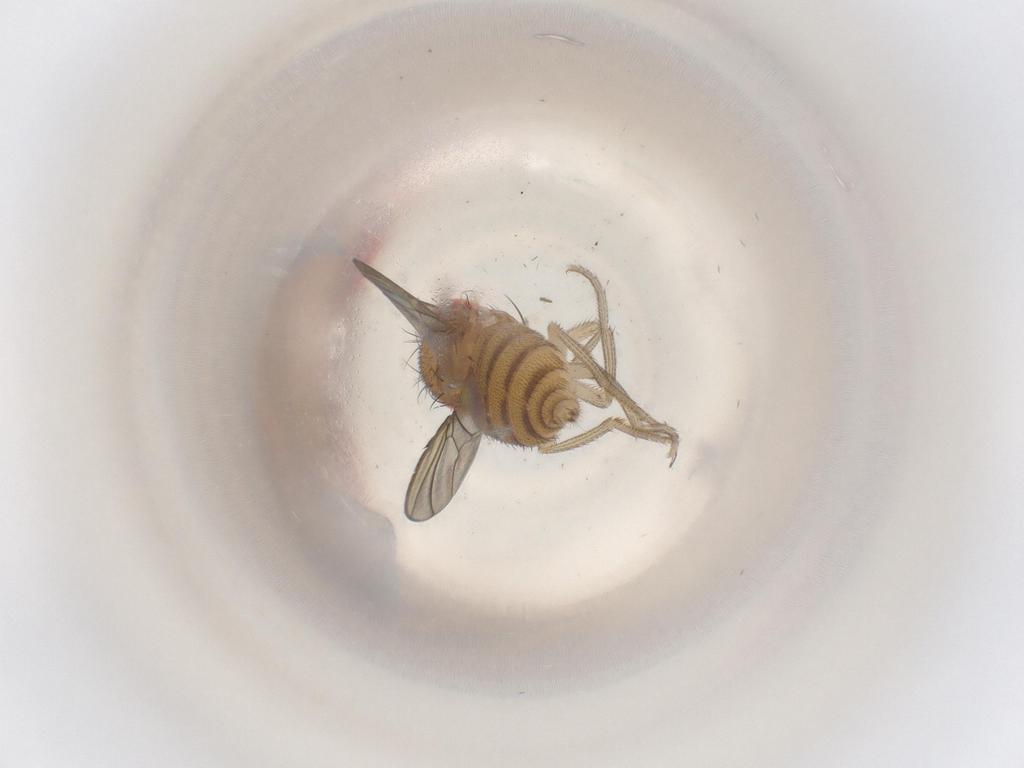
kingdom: Animalia
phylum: Arthropoda
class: Insecta
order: Diptera
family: Drosophilidae
